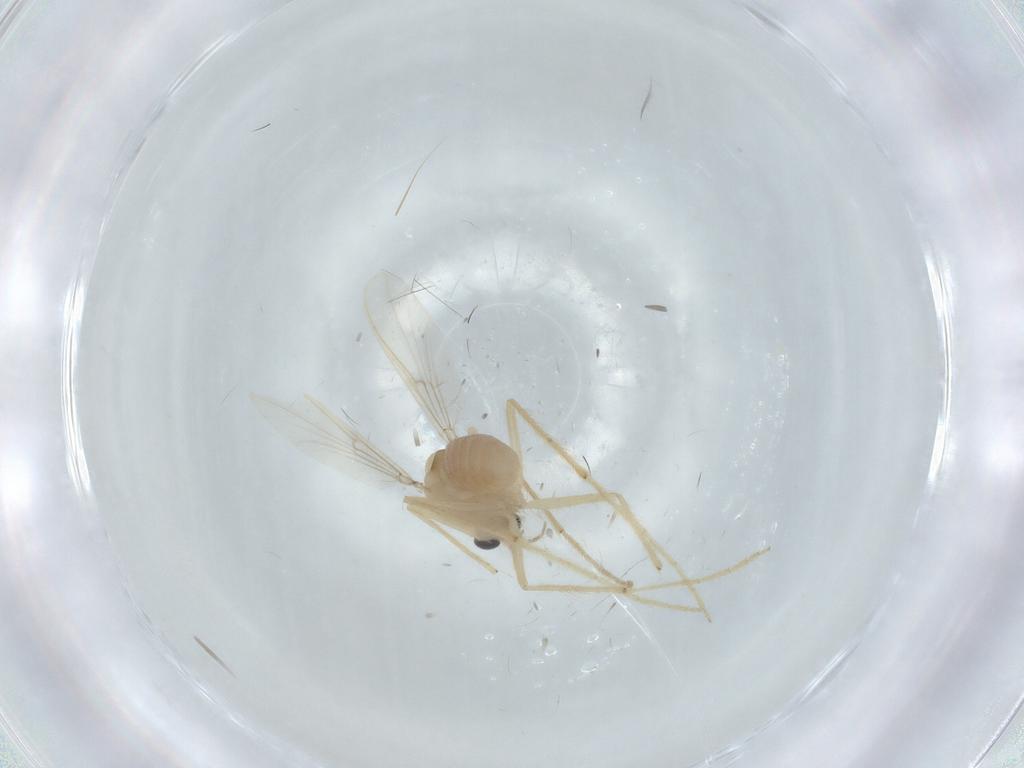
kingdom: Animalia
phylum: Arthropoda
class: Insecta
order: Diptera
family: Chironomidae
